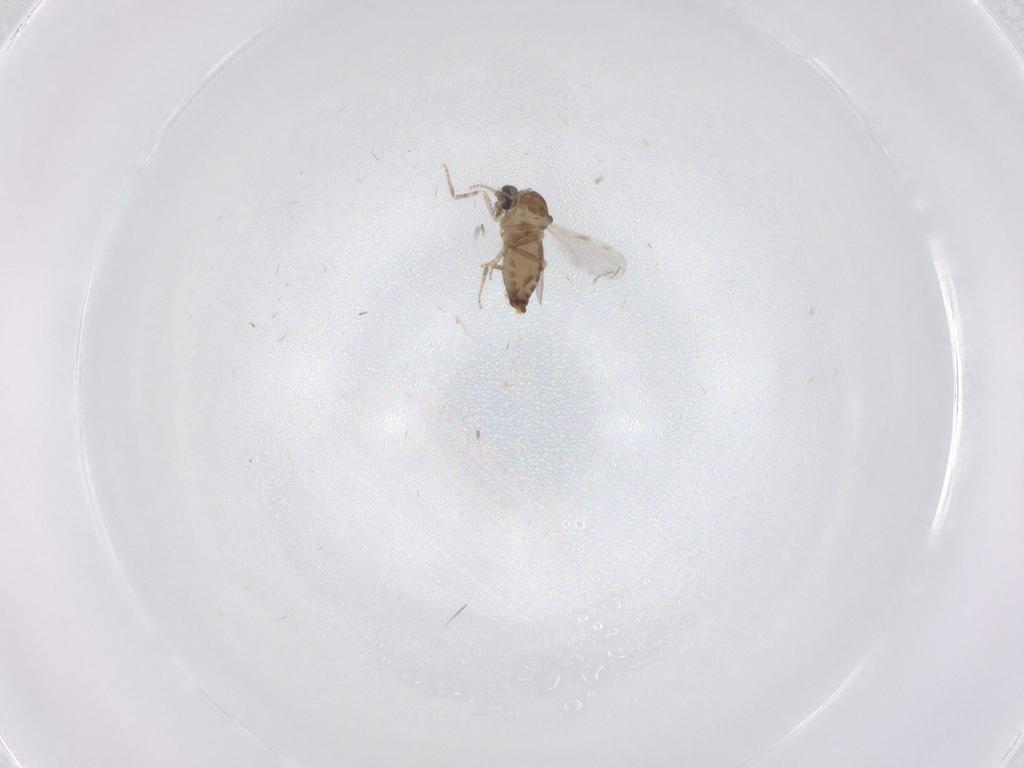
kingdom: Animalia
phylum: Arthropoda
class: Insecta
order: Diptera
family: Ceratopogonidae
